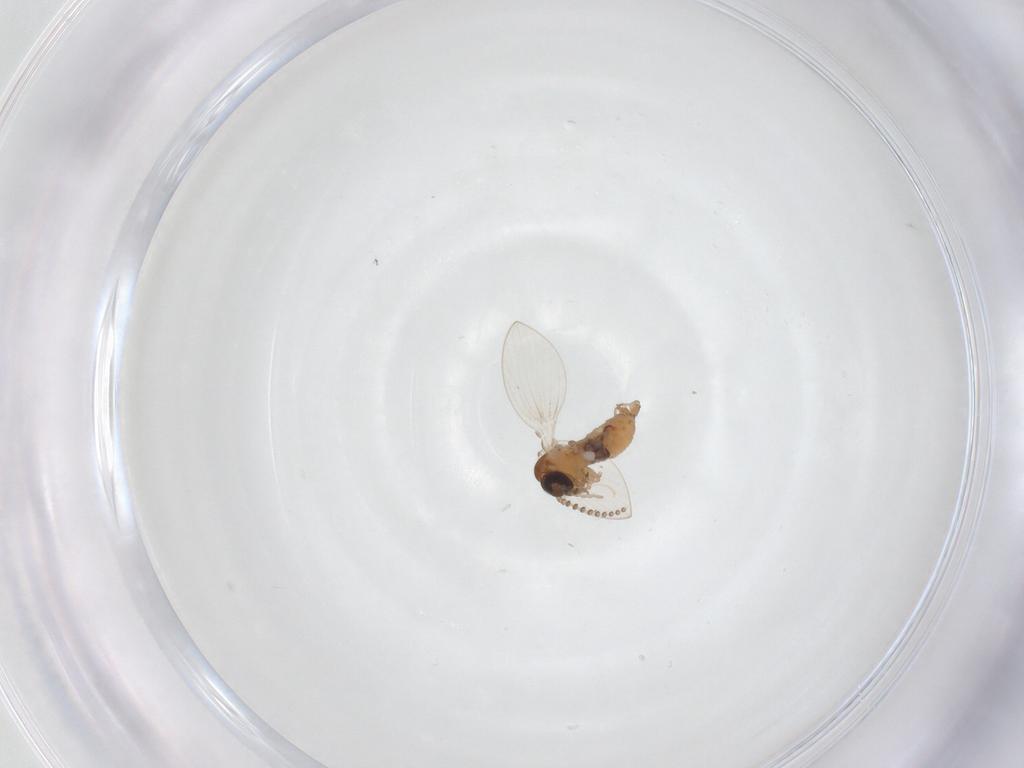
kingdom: Animalia
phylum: Arthropoda
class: Insecta
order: Diptera
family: Psychodidae
